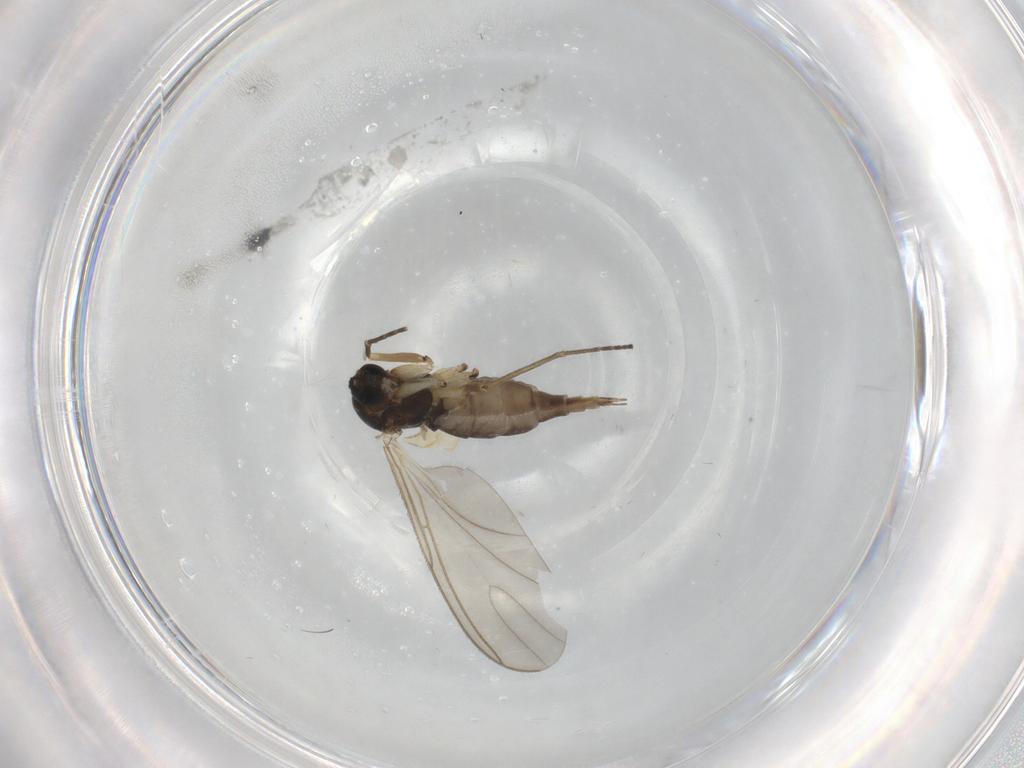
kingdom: Animalia
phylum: Arthropoda
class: Insecta
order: Diptera
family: Sciaridae
